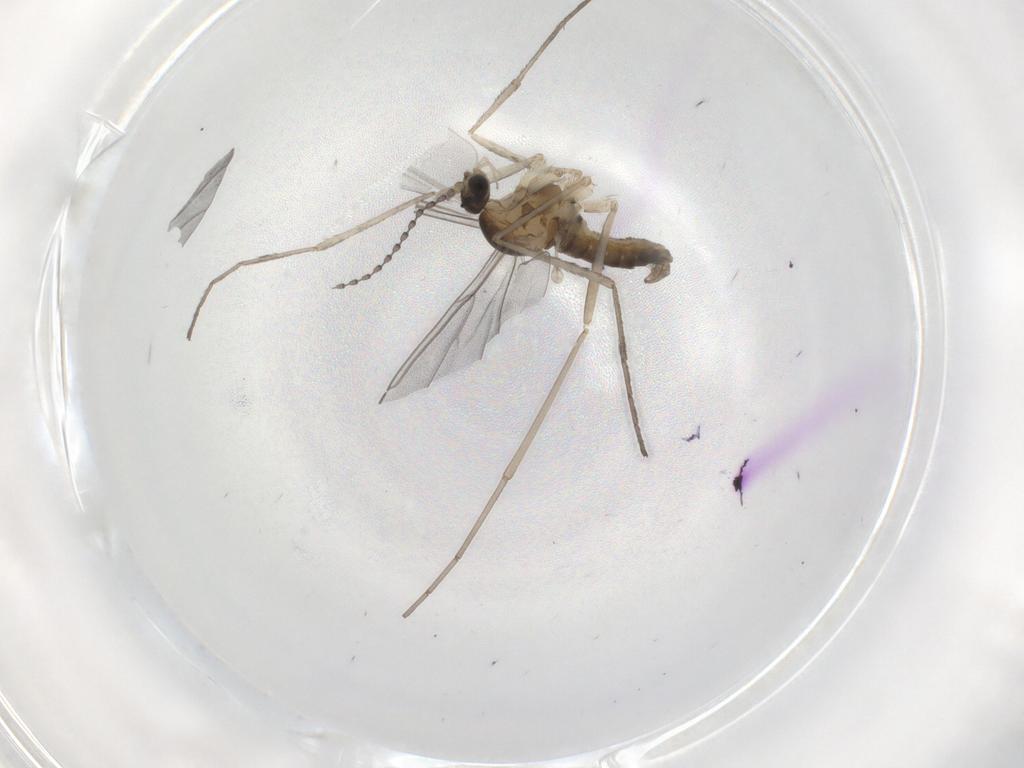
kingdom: Animalia
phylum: Arthropoda
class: Insecta
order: Diptera
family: Cecidomyiidae
